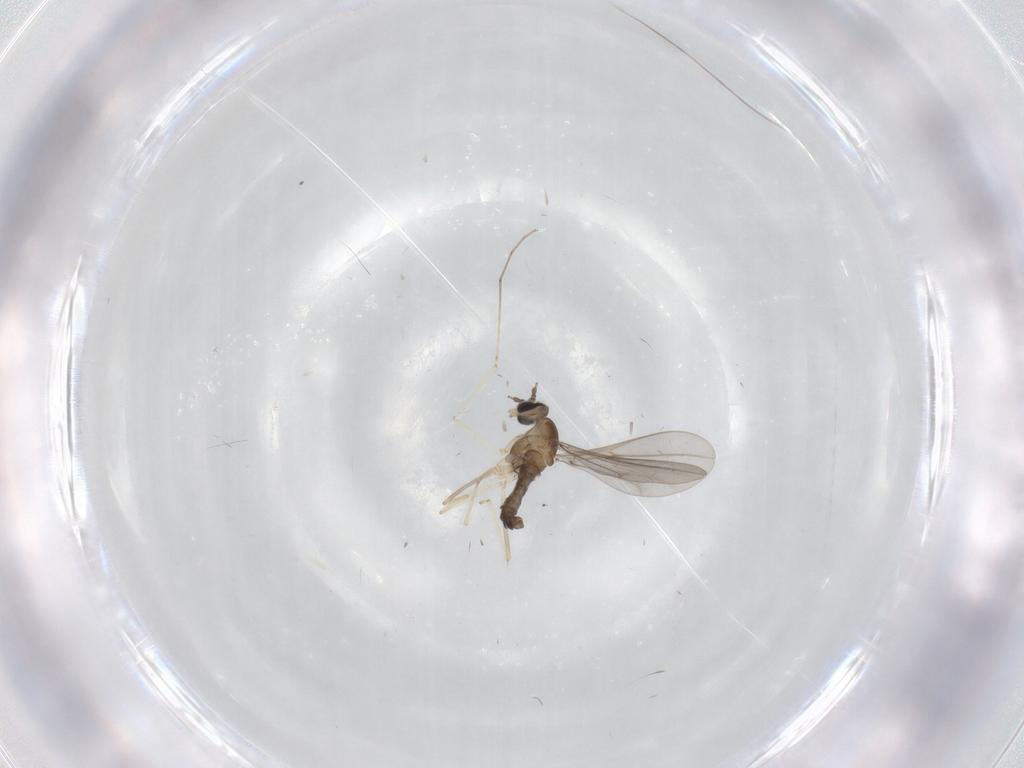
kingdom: Animalia
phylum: Arthropoda
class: Insecta
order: Diptera
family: Cecidomyiidae
